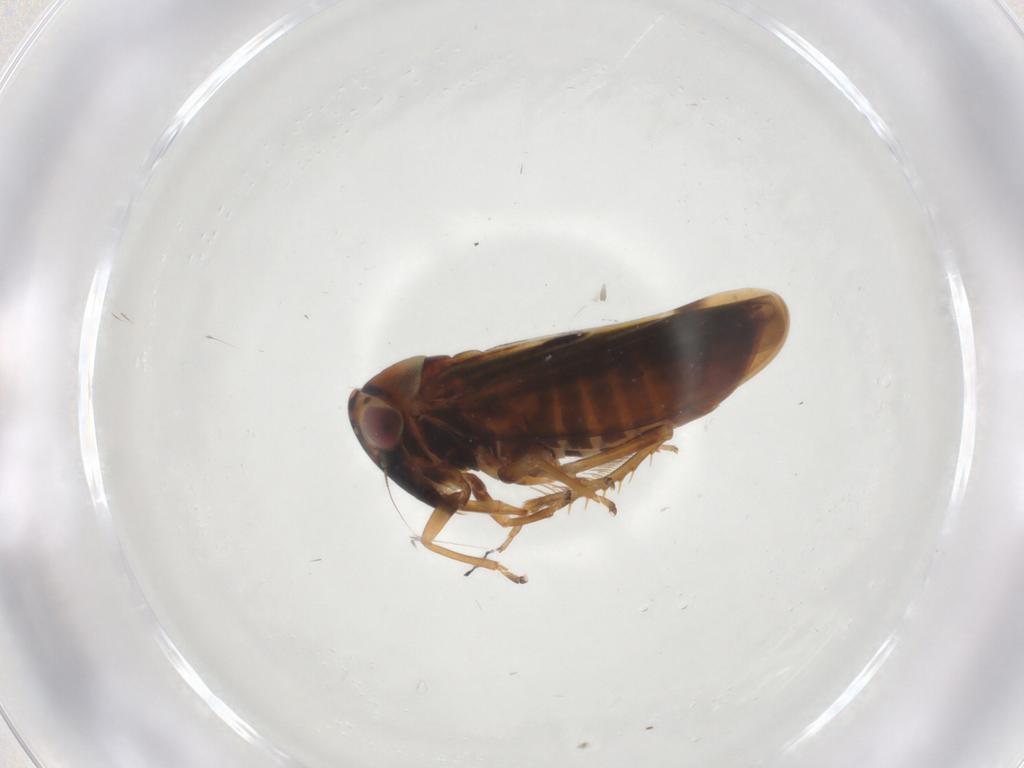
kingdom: Animalia
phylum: Arthropoda
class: Insecta
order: Hemiptera
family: Cicadellidae
